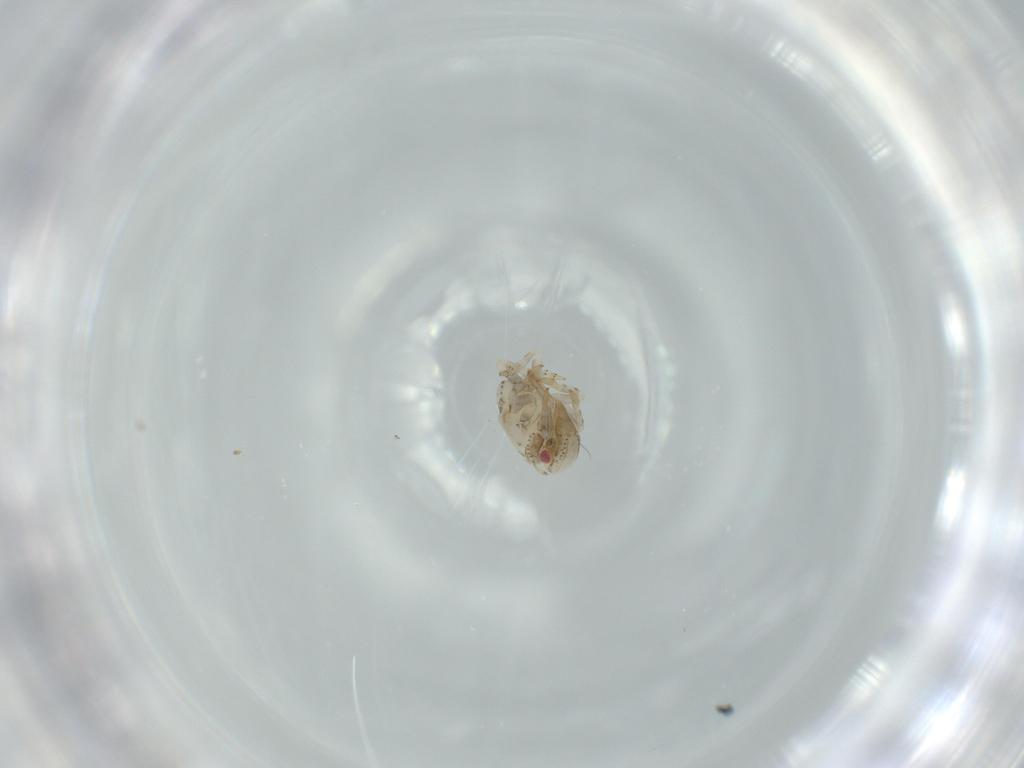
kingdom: Animalia
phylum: Arthropoda
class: Insecta
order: Hemiptera
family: Acanaloniidae
